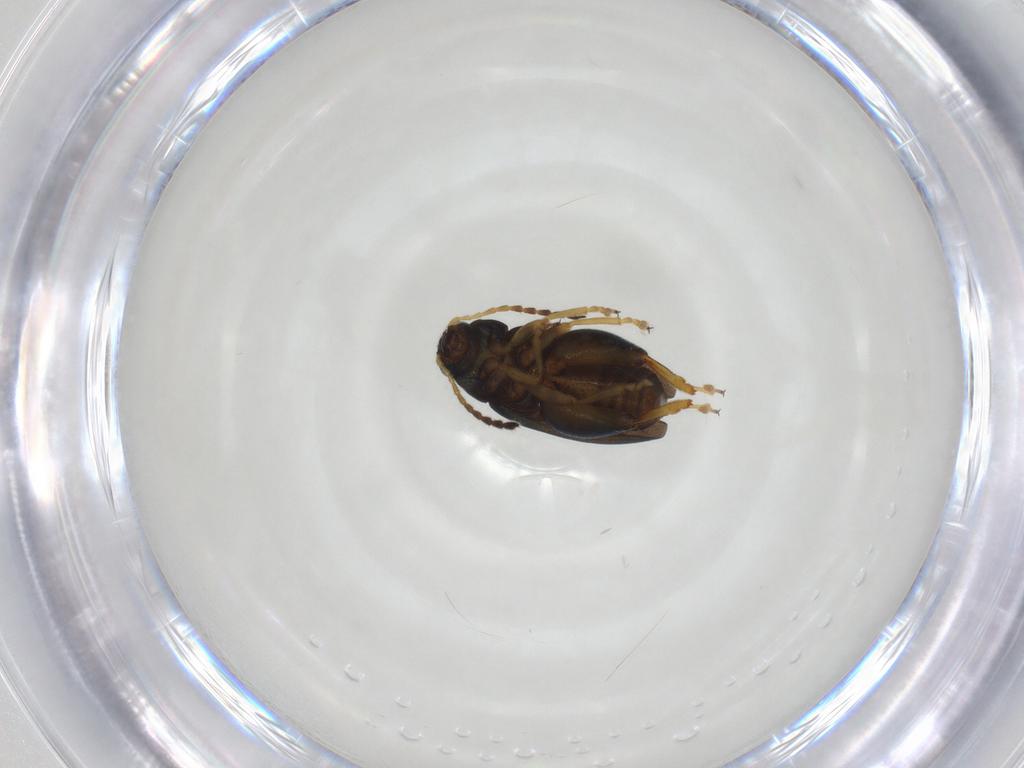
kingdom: Animalia
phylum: Arthropoda
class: Insecta
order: Coleoptera
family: Chrysomelidae
